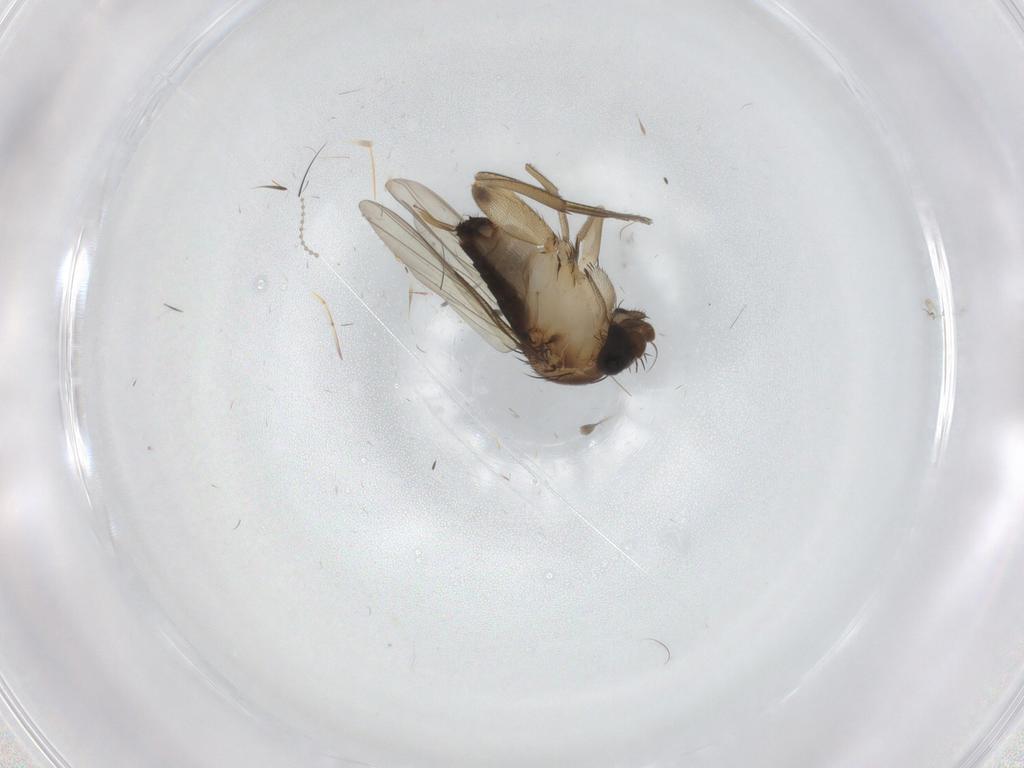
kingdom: Animalia
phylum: Arthropoda
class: Insecta
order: Diptera
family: Phoridae
